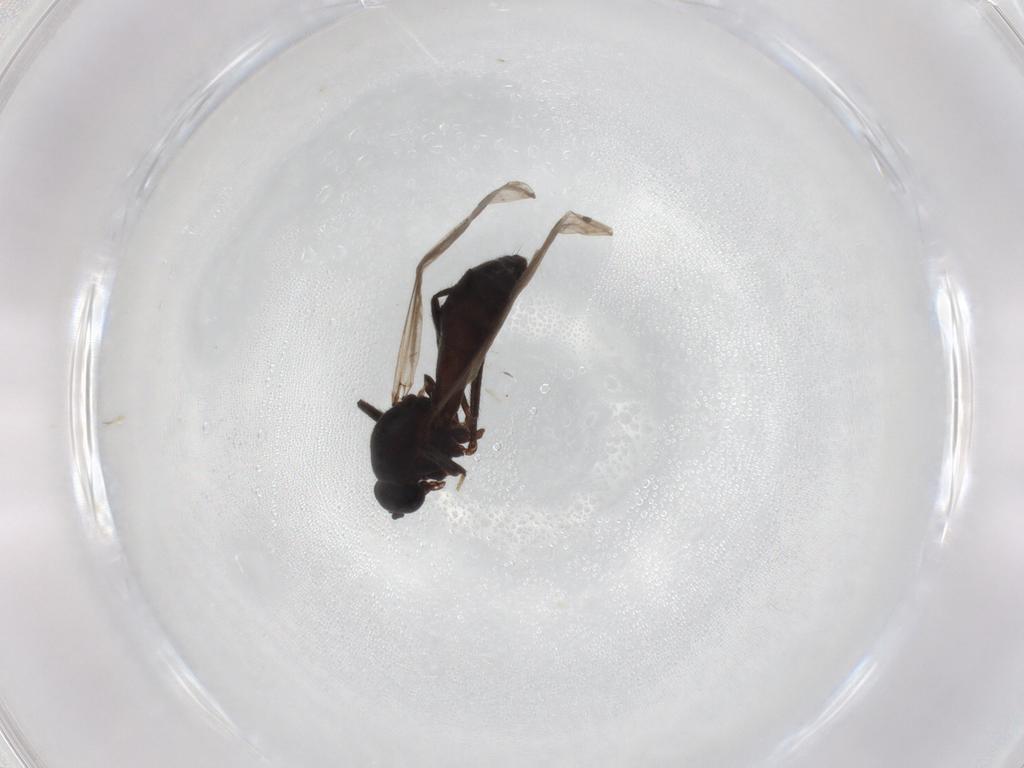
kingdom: Animalia
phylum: Arthropoda
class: Insecta
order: Diptera
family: Ceratopogonidae
